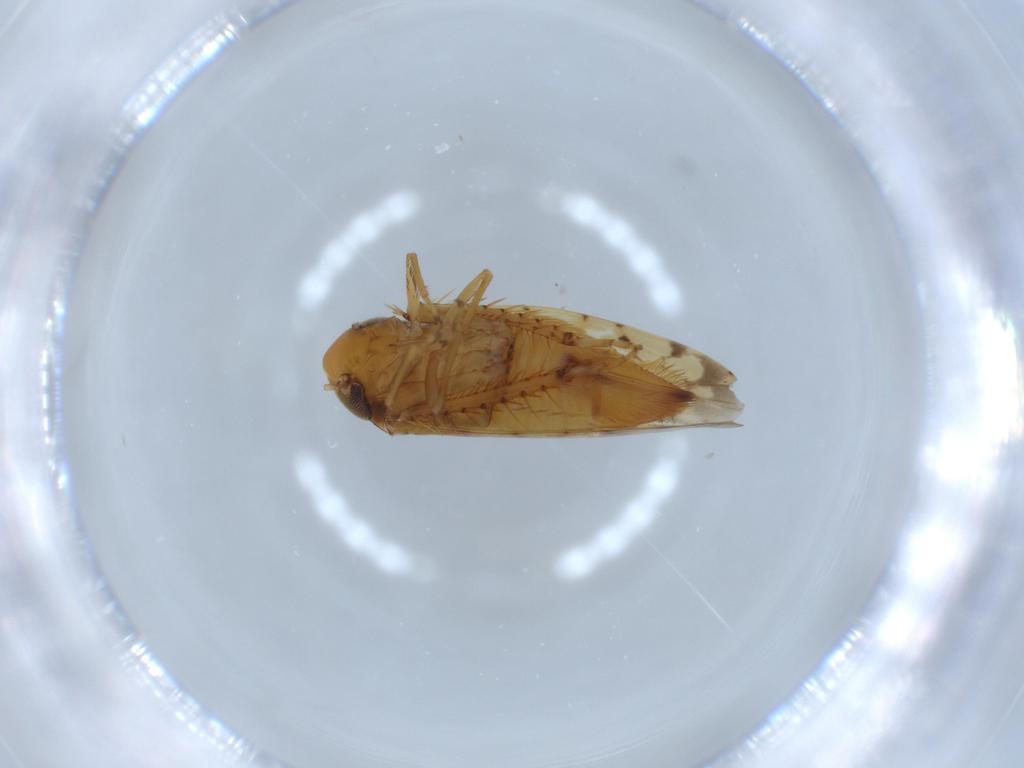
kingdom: Animalia
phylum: Arthropoda
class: Insecta
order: Hemiptera
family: Cicadellidae
